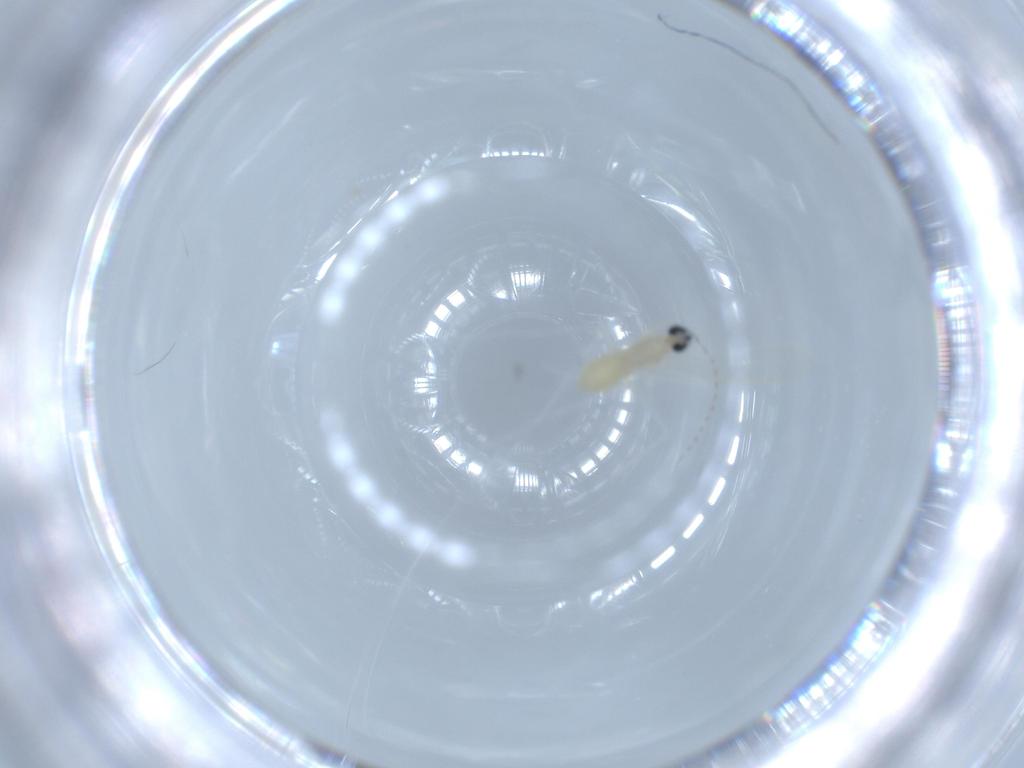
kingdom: Animalia
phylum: Arthropoda
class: Insecta
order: Diptera
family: Cecidomyiidae
